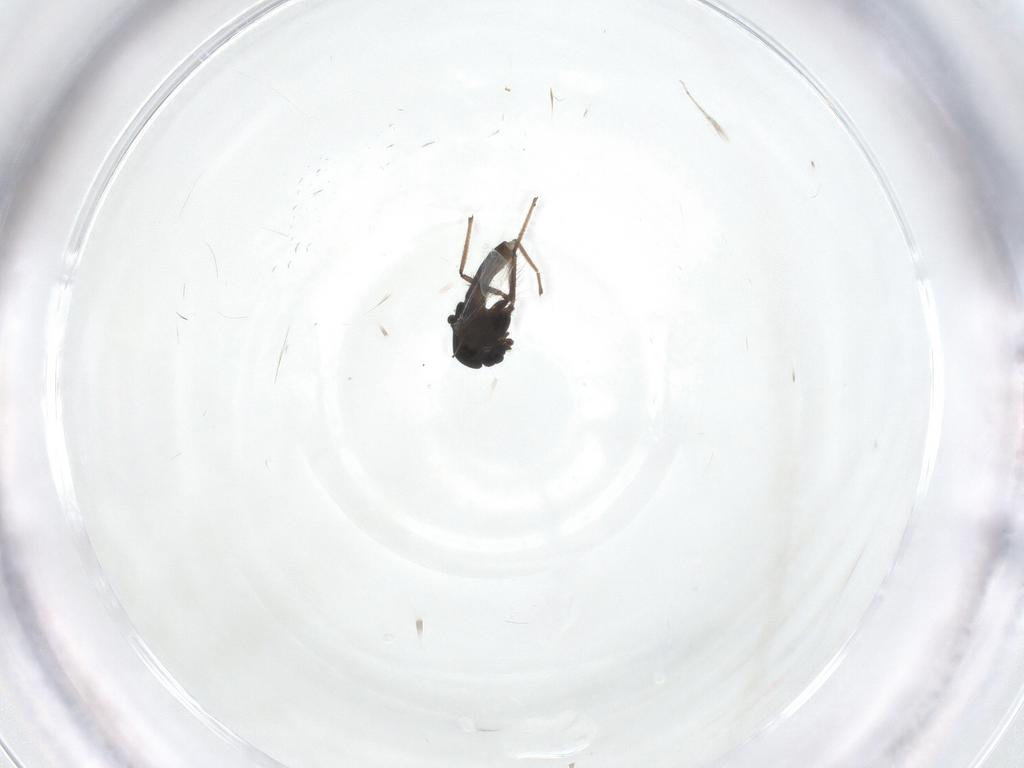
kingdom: Animalia
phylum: Arthropoda
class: Insecta
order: Diptera
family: Chironomidae
